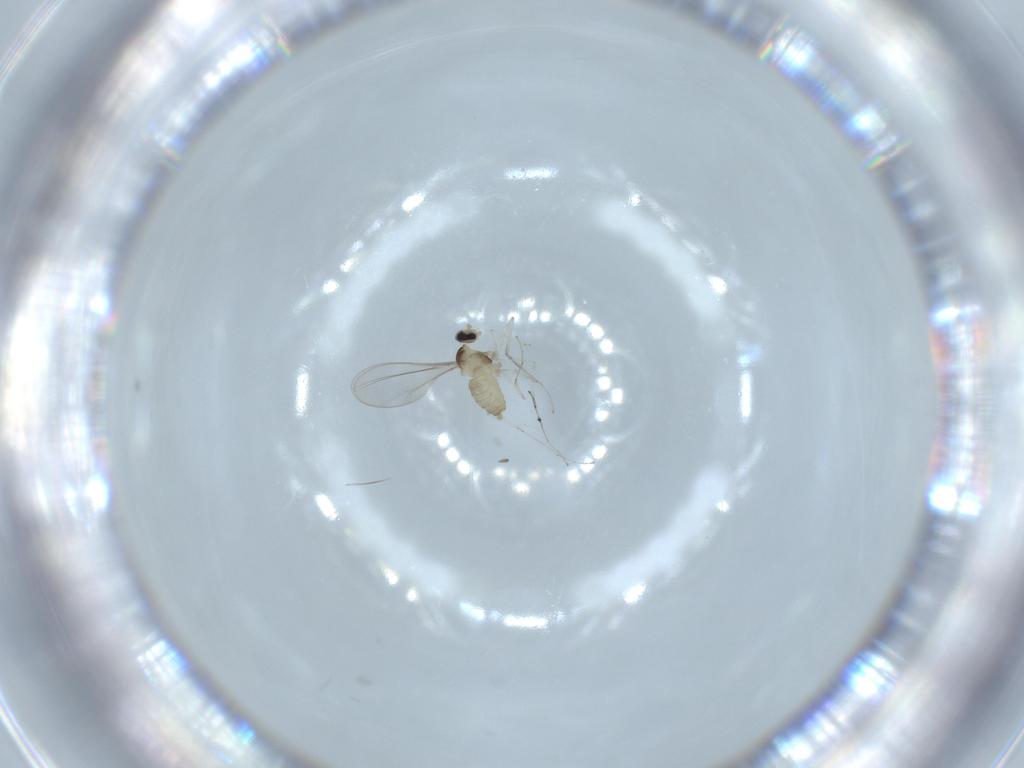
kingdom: Animalia
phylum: Arthropoda
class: Insecta
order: Diptera
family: Cecidomyiidae
